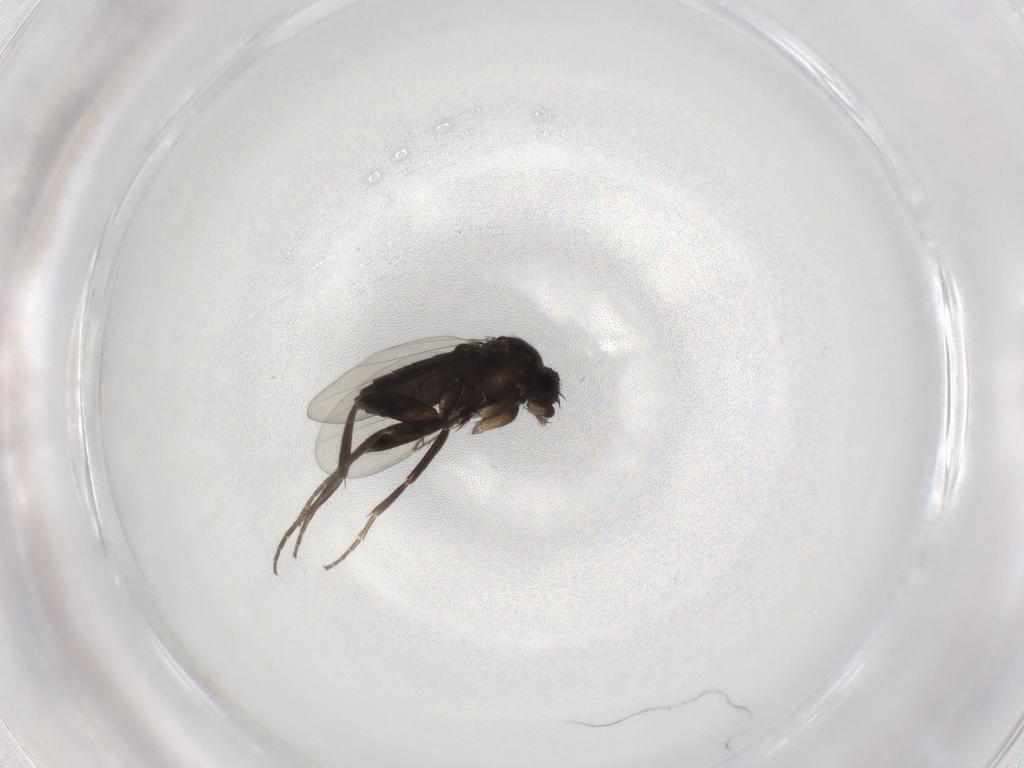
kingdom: Animalia
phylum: Arthropoda
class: Insecta
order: Diptera
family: Phoridae
